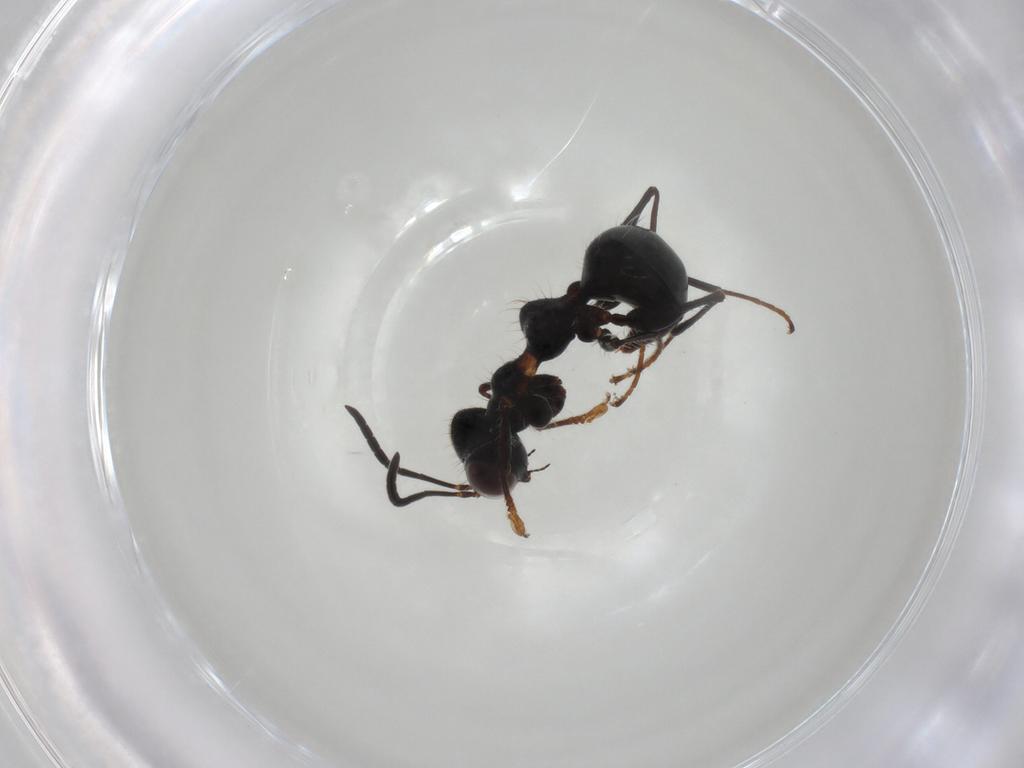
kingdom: Animalia
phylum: Arthropoda
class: Insecta
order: Hymenoptera
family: Dryinidae
